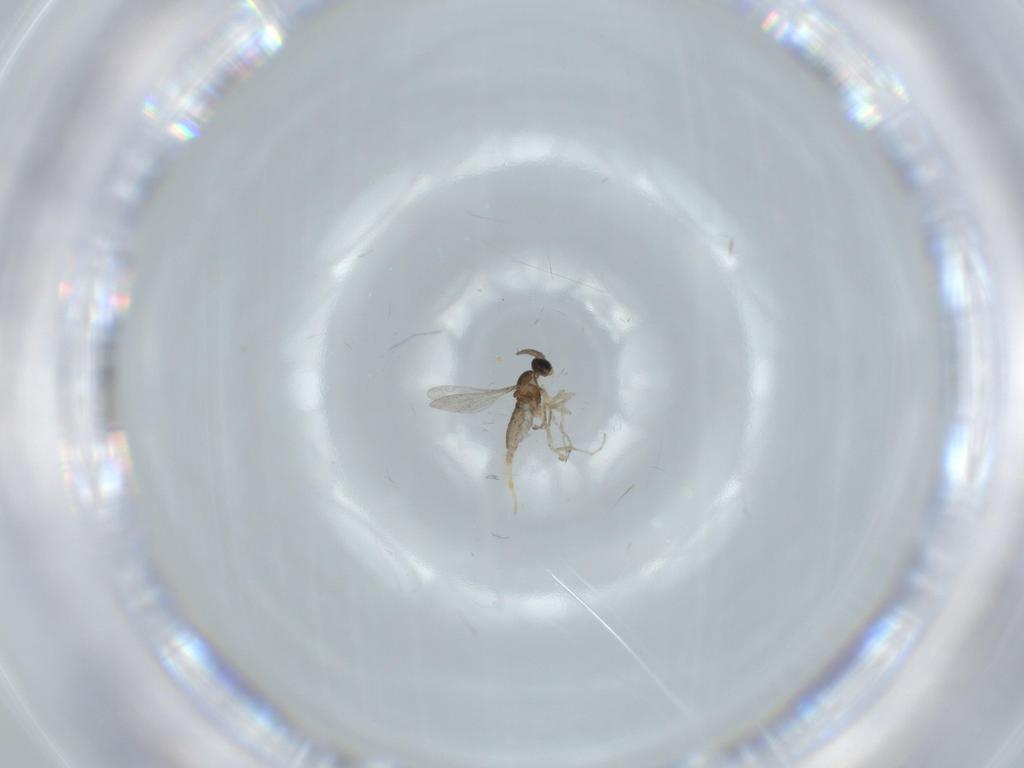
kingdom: Animalia
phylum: Arthropoda
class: Insecta
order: Diptera
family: Cecidomyiidae
